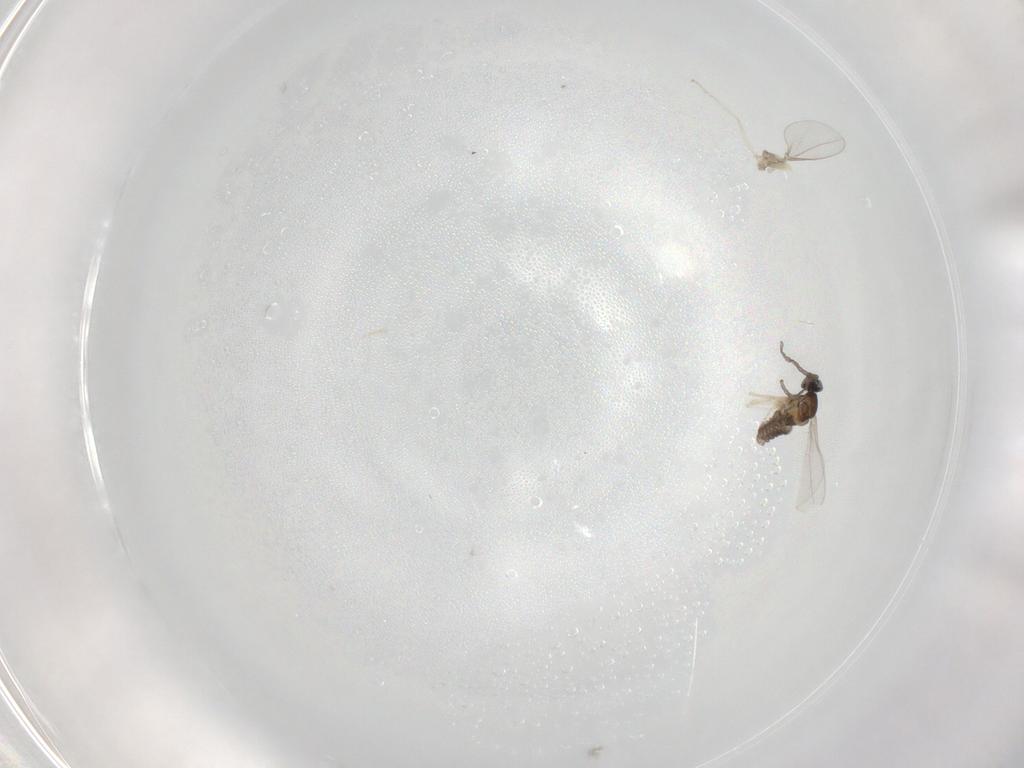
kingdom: Animalia
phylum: Arthropoda
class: Insecta
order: Diptera
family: Cecidomyiidae
